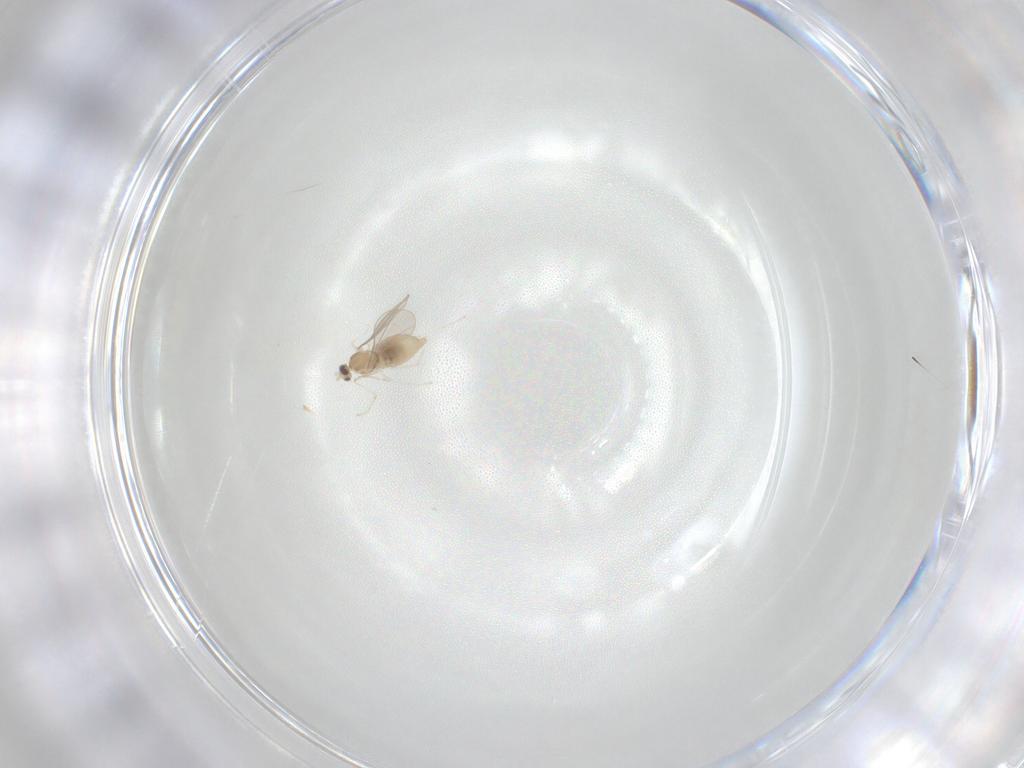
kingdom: Animalia
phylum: Arthropoda
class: Insecta
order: Diptera
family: Cecidomyiidae
